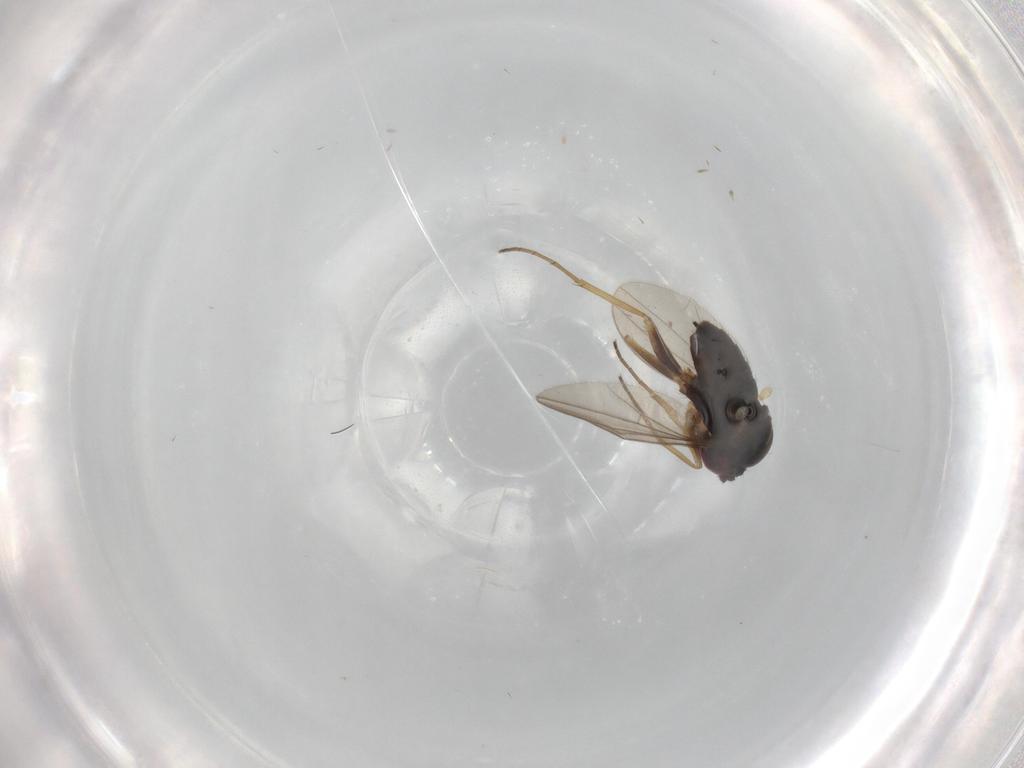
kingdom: Animalia
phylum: Arthropoda
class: Insecta
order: Diptera
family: Dolichopodidae
